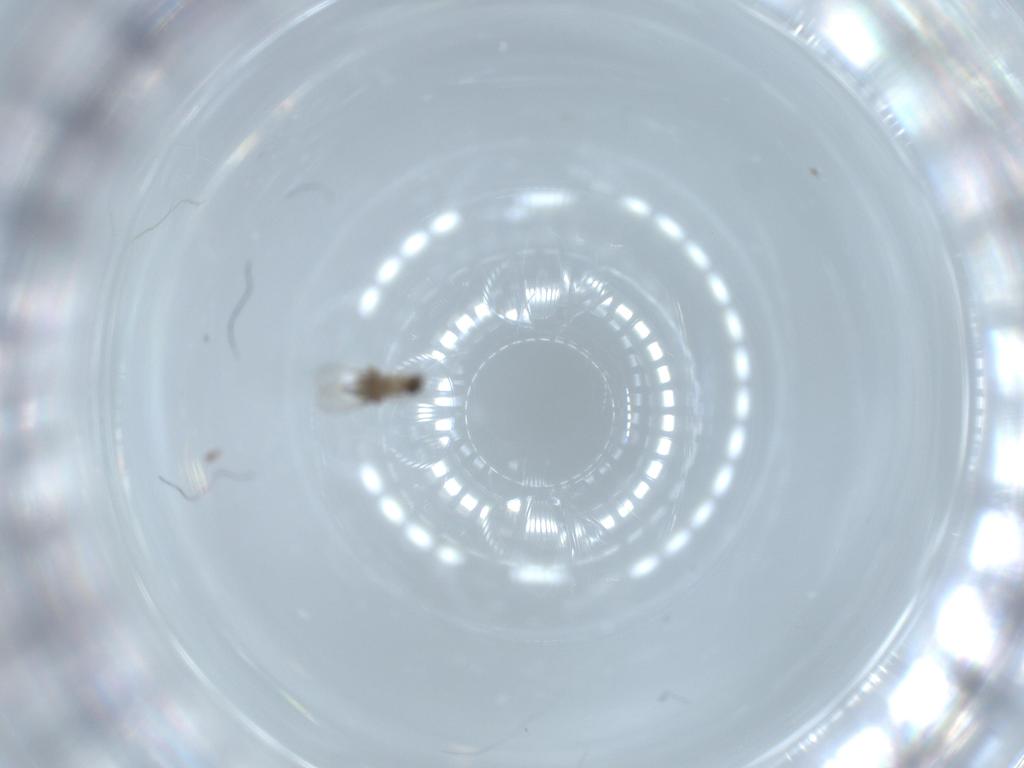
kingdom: Animalia
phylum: Arthropoda
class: Insecta
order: Diptera
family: Phoridae
